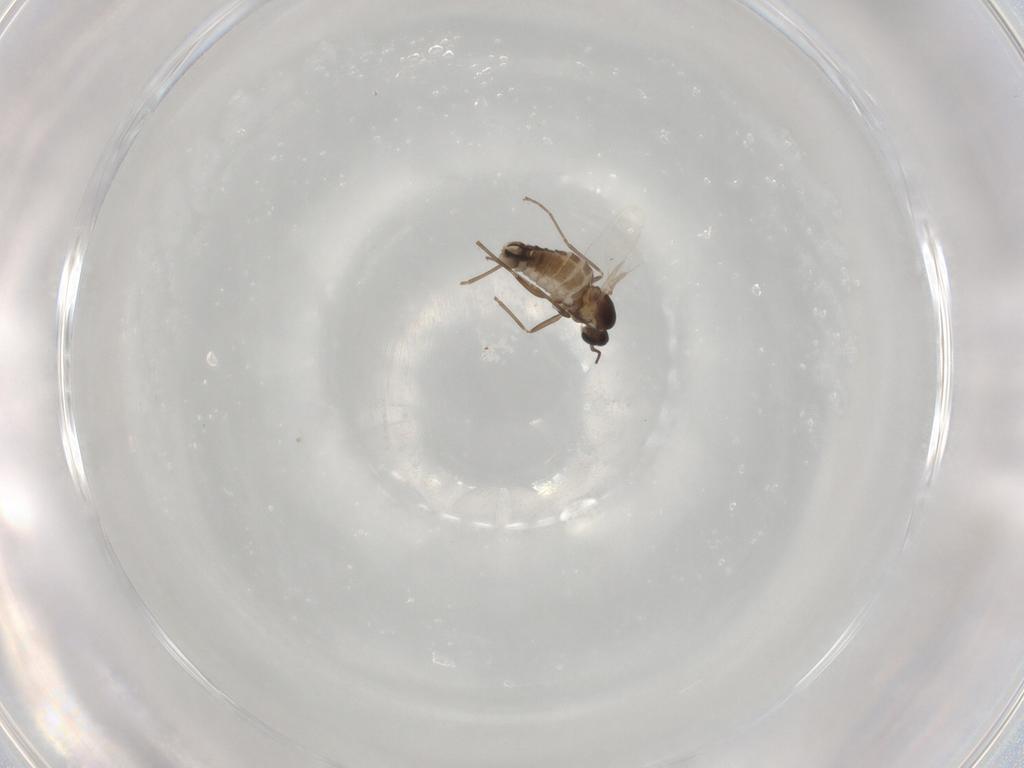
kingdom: Animalia
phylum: Arthropoda
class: Insecta
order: Diptera
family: Cecidomyiidae
